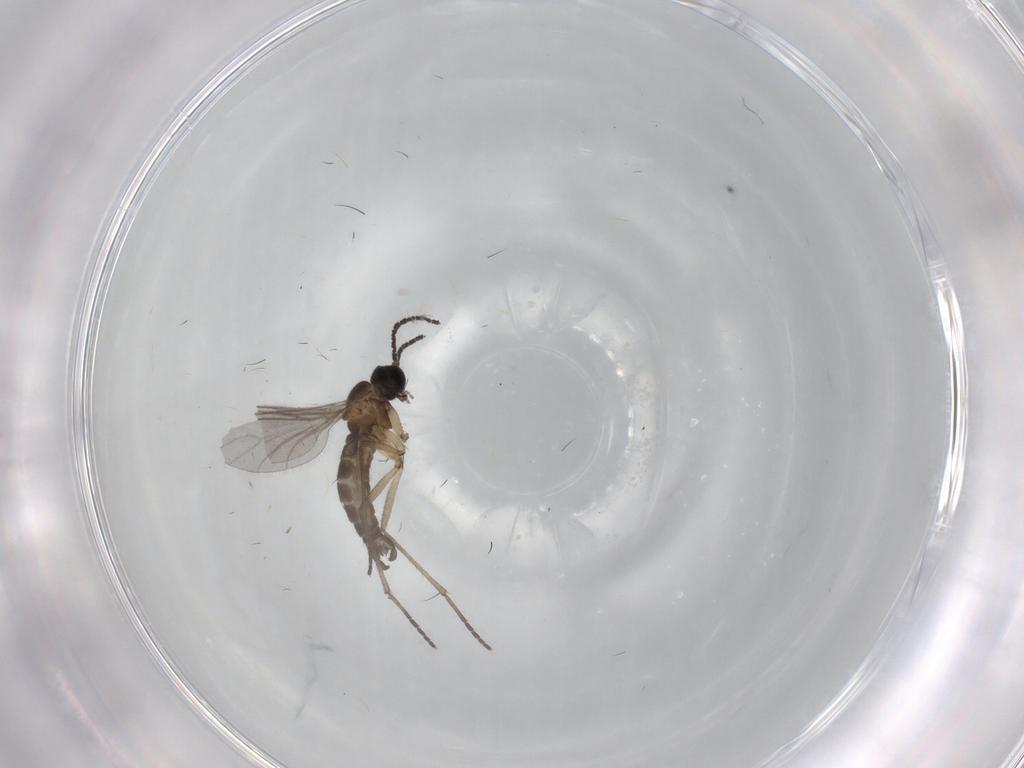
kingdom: Animalia
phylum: Arthropoda
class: Insecta
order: Diptera
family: Sciaridae
